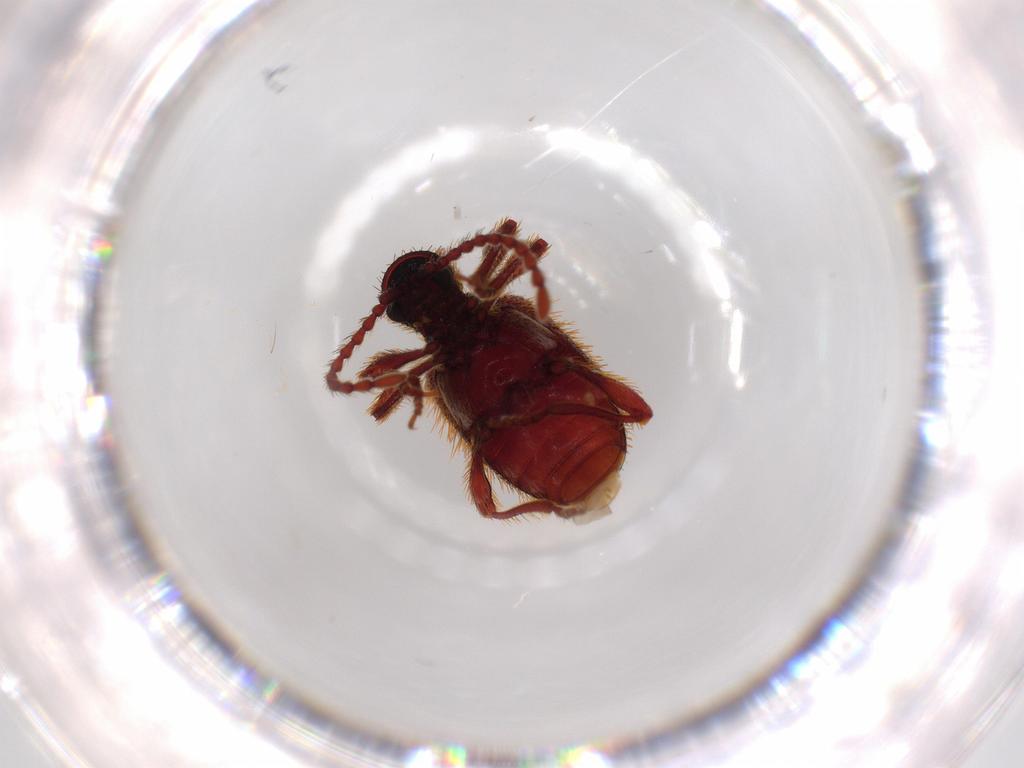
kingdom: Animalia
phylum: Arthropoda
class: Insecta
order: Coleoptera
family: Ptinidae
